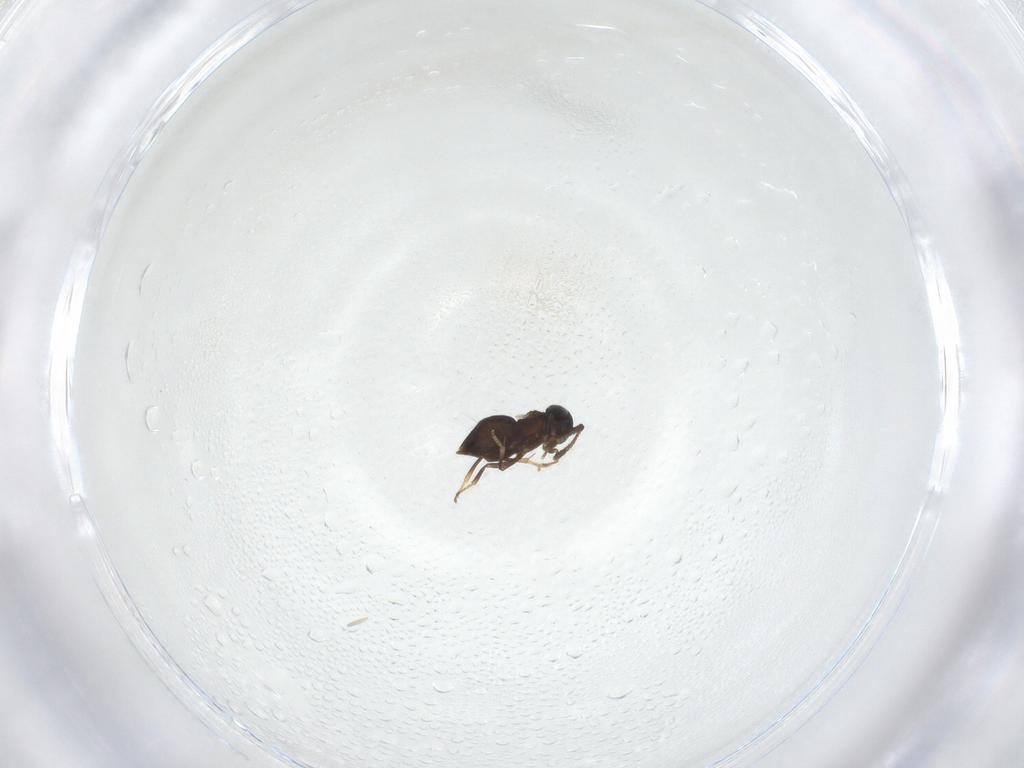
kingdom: Animalia
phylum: Arthropoda
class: Insecta
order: Hymenoptera
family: Encyrtidae
